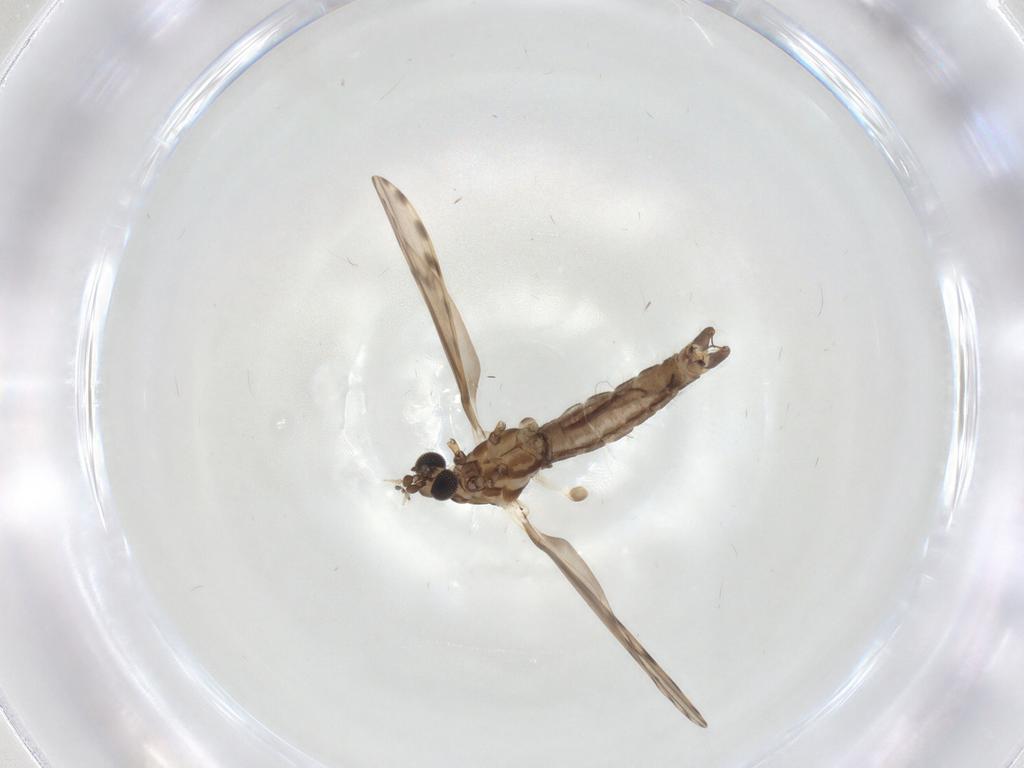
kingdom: Animalia
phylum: Arthropoda
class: Insecta
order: Diptera
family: Limoniidae
